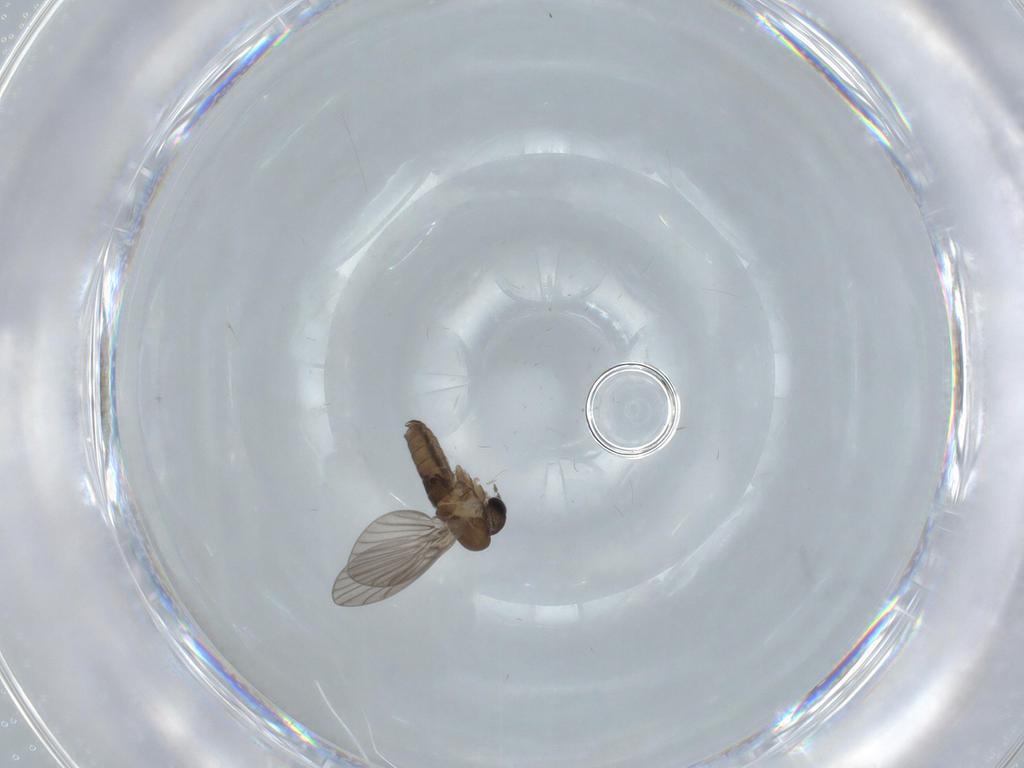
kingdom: Animalia
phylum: Arthropoda
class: Insecta
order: Diptera
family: Psychodidae
